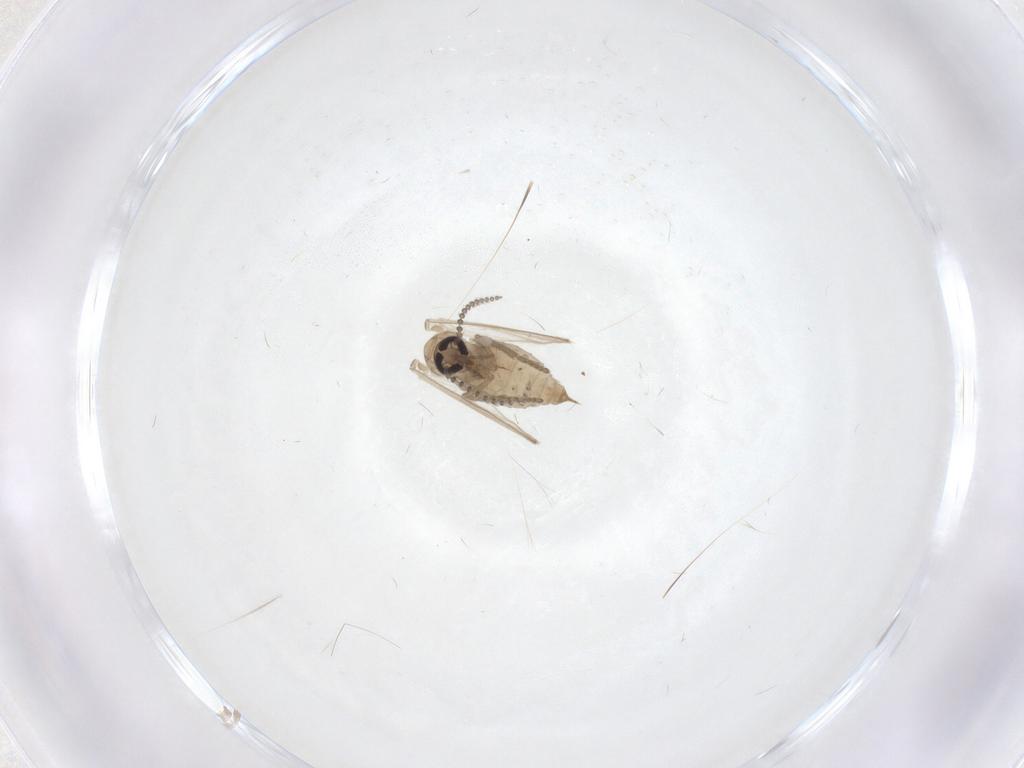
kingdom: Animalia
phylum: Arthropoda
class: Insecta
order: Diptera
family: Psychodidae
